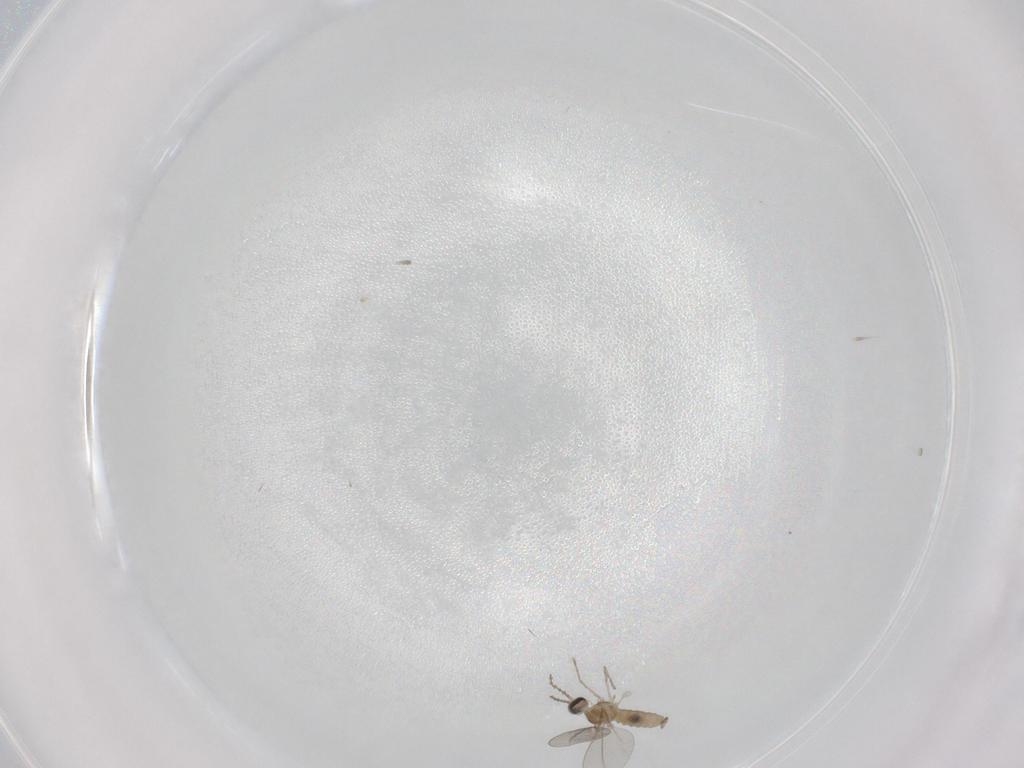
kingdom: Animalia
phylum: Arthropoda
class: Insecta
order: Diptera
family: Cecidomyiidae
